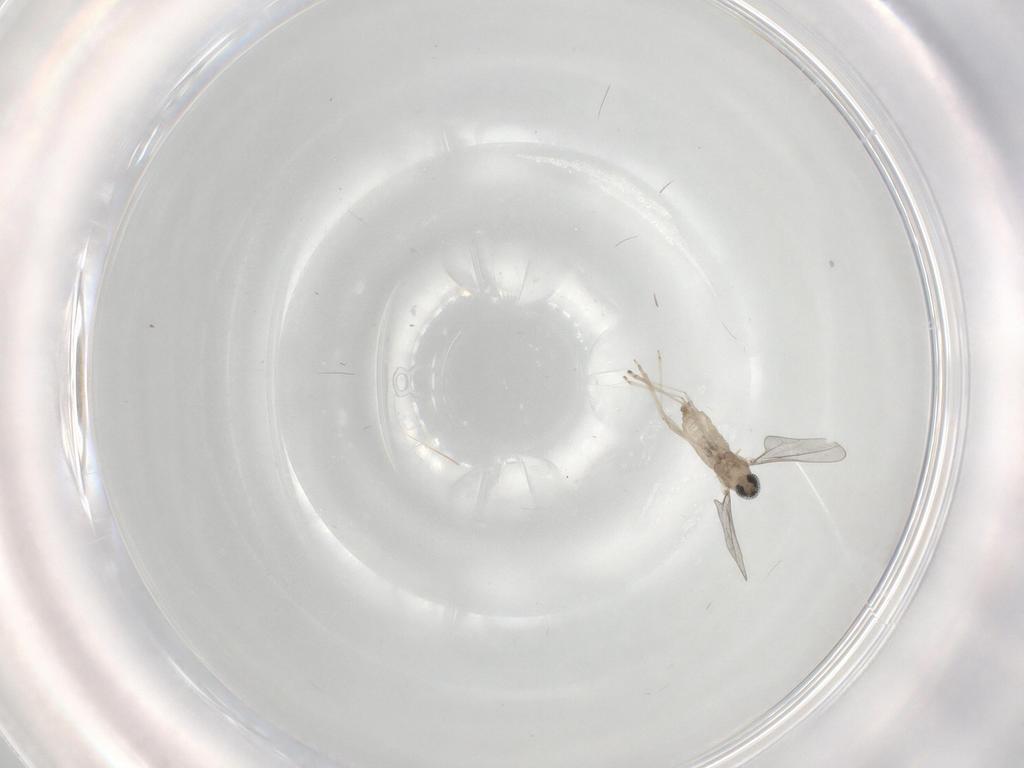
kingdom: Animalia
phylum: Arthropoda
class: Insecta
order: Diptera
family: Cecidomyiidae
